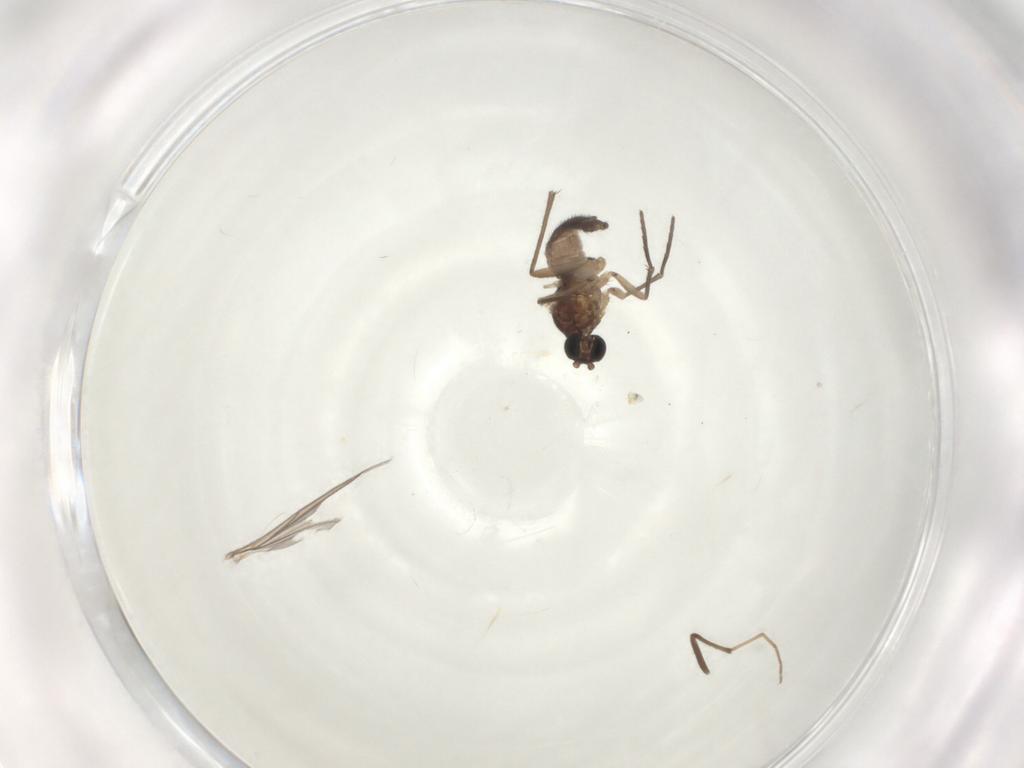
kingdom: Animalia
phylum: Arthropoda
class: Insecta
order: Diptera
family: Sciaridae
